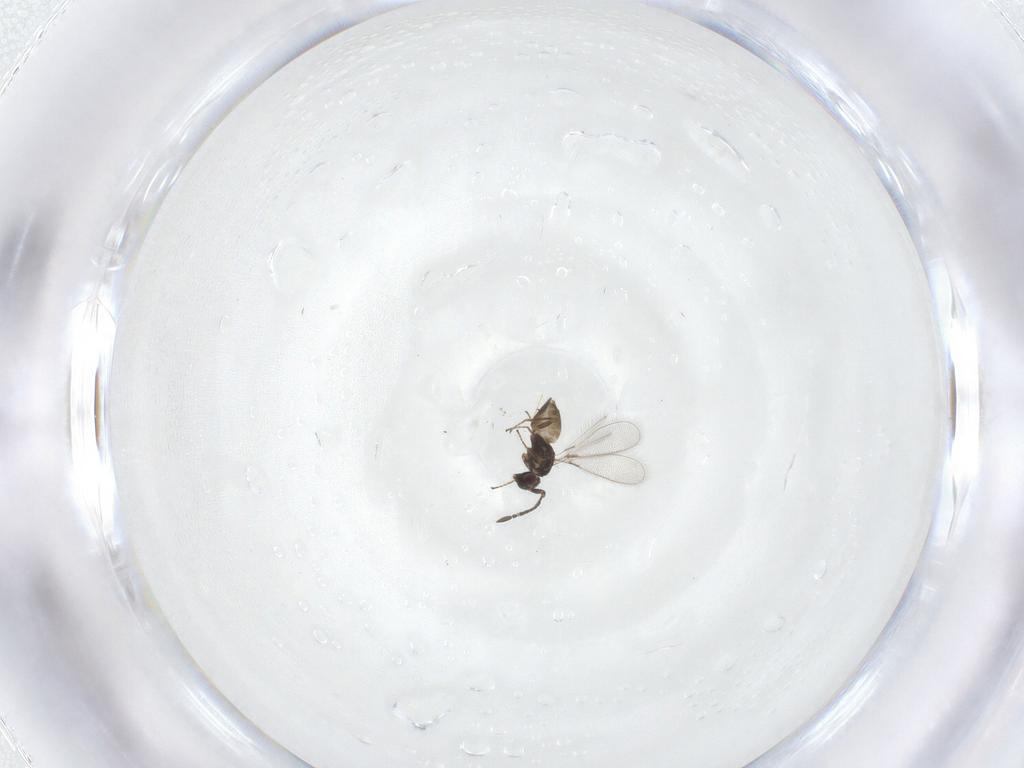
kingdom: Animalia
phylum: Arthropoda
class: Insecta
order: Hymenoptera
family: Mymaridae
